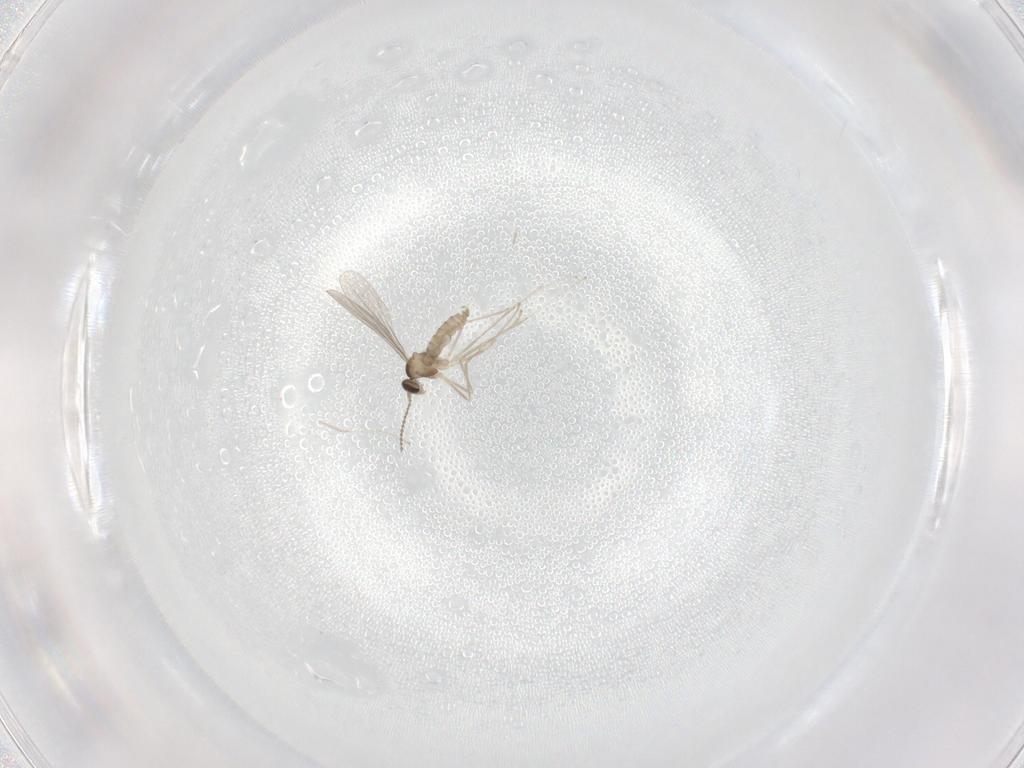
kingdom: Animalia
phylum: Arthropoda
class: Insecta
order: Diptera
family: Cecidomyiidae
